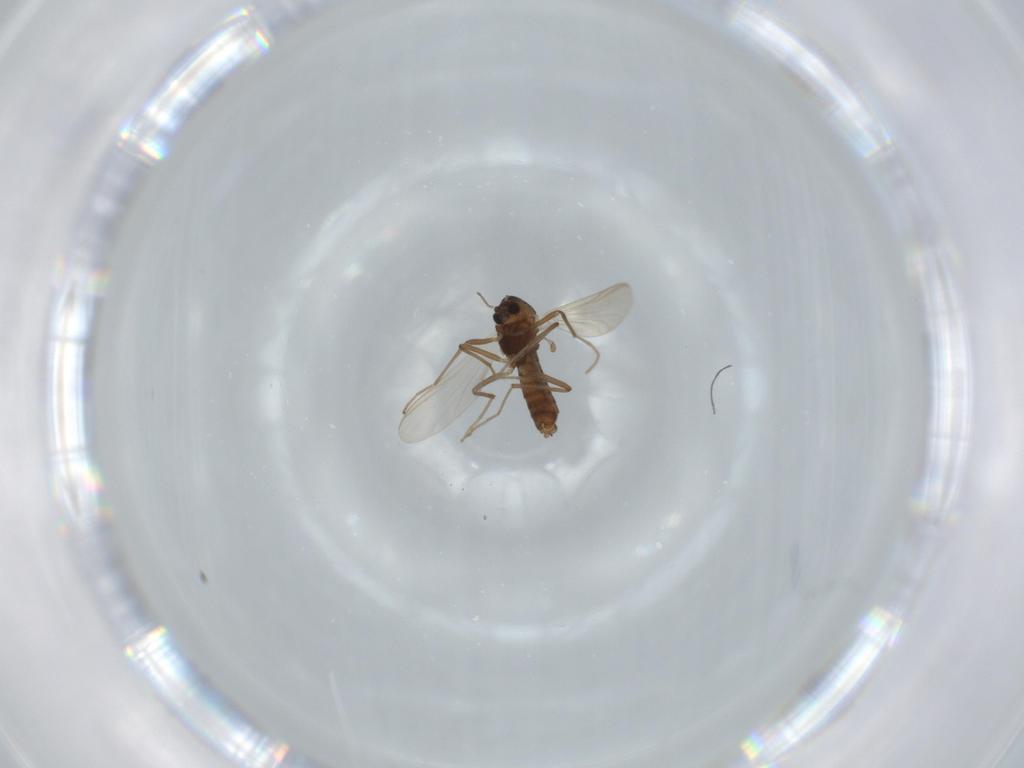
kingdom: Animalia
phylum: Arthropoda
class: Insecta
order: Diptera
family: Chironomidae
